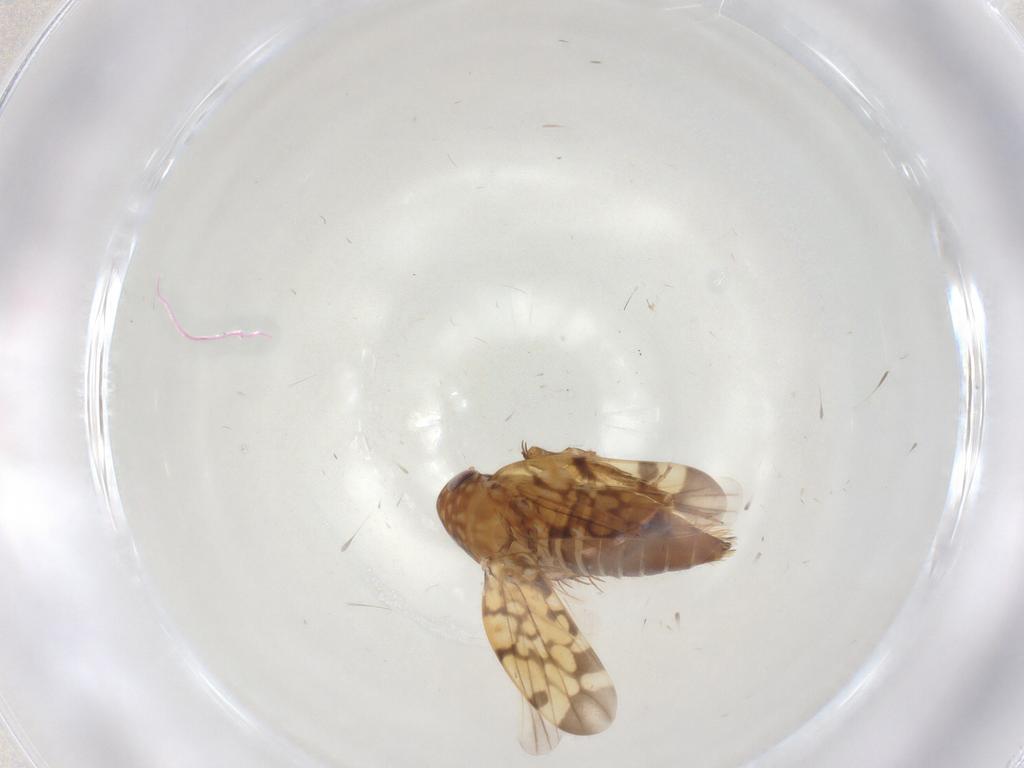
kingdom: Animalia
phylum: Arthropoda
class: Insecta
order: Hemiptera
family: Cicadellidae
